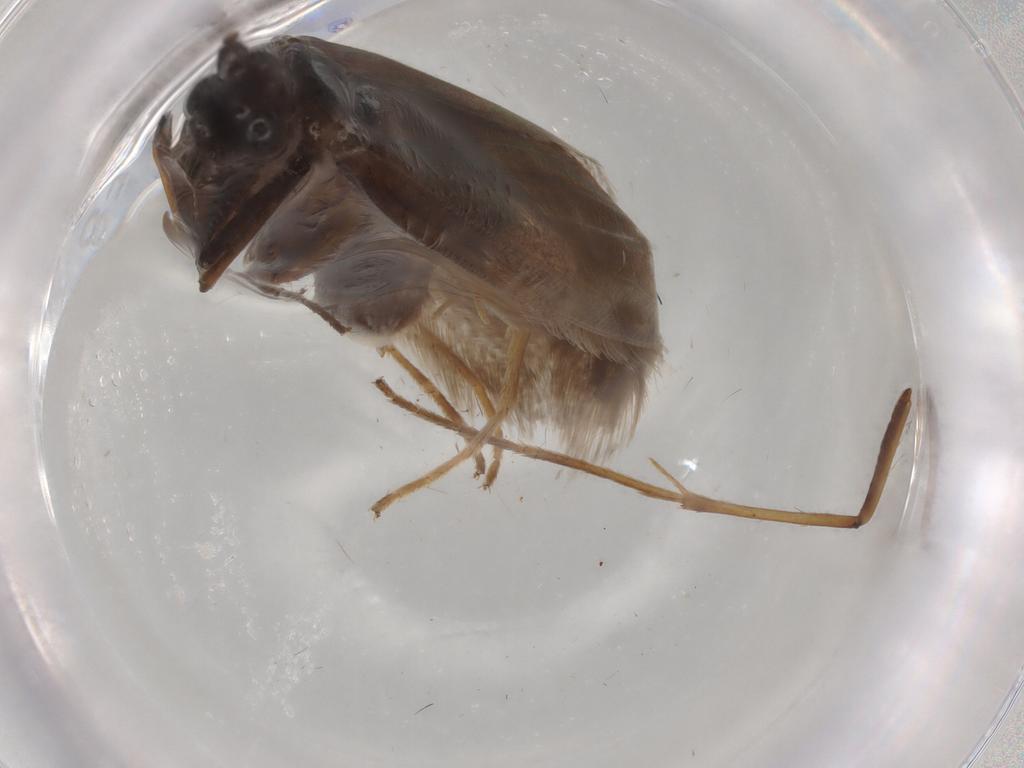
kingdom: Animalia
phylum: Arthropoda
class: Insecta
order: Lepidoptera
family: Adelidae
